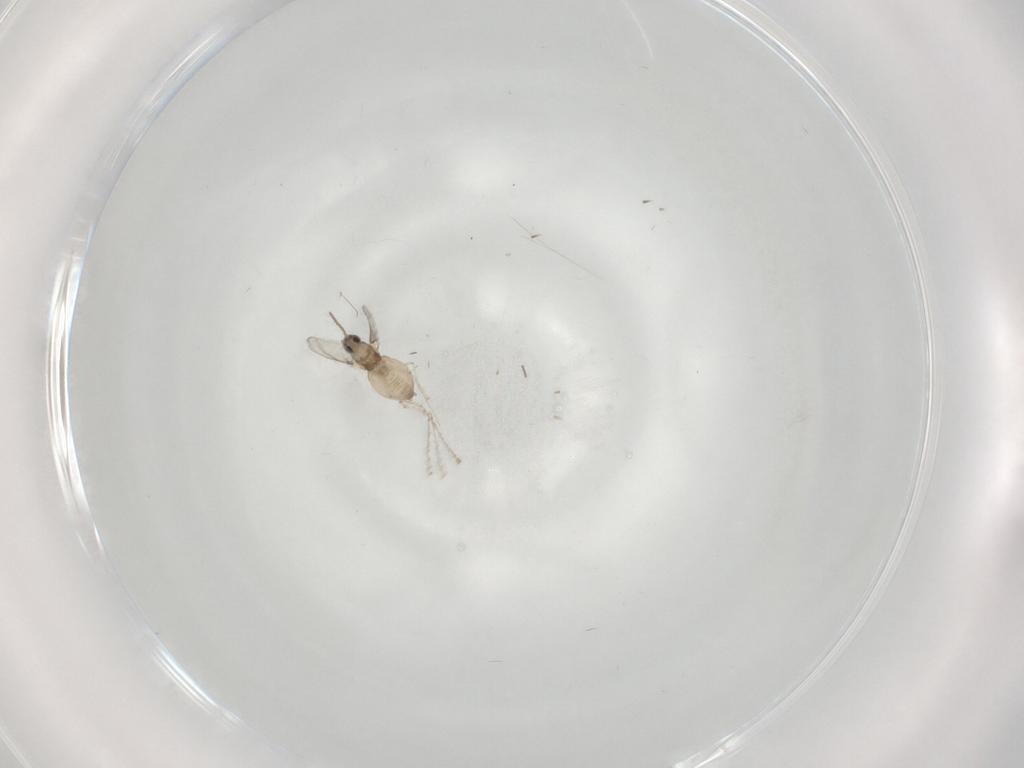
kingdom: Animalia
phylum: Arthropoda
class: Insecta
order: Diptera
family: Cecidomyiidae
